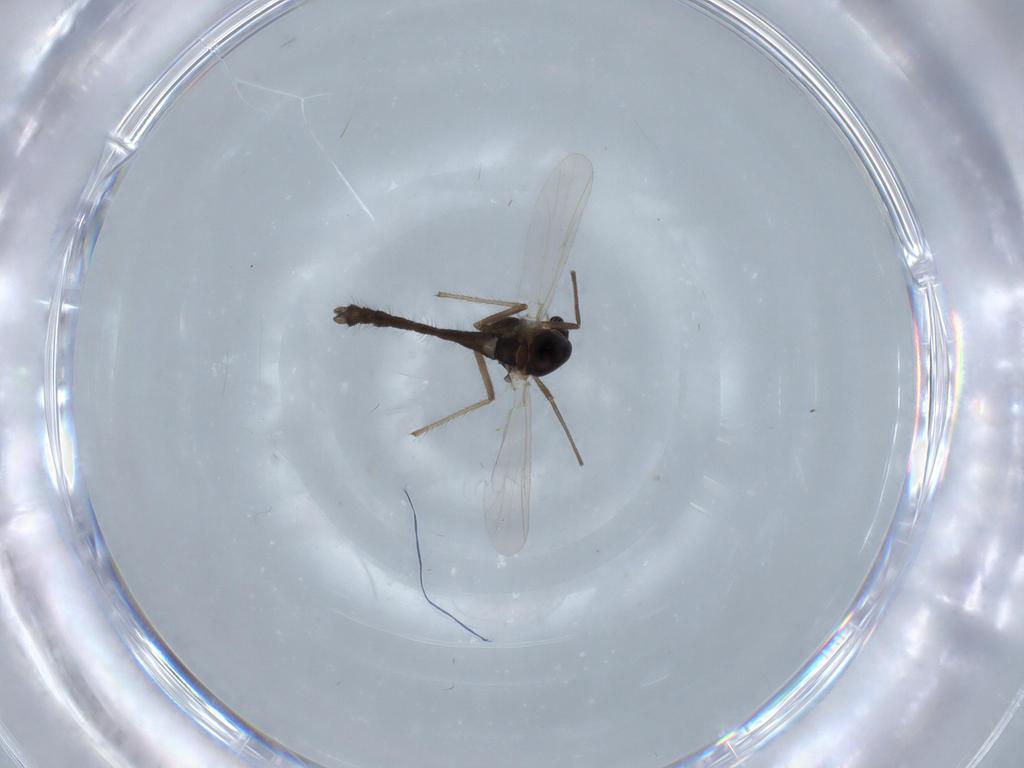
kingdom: Animalia
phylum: Arthropoda
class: Insecta
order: Diptera
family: Chironomidae
